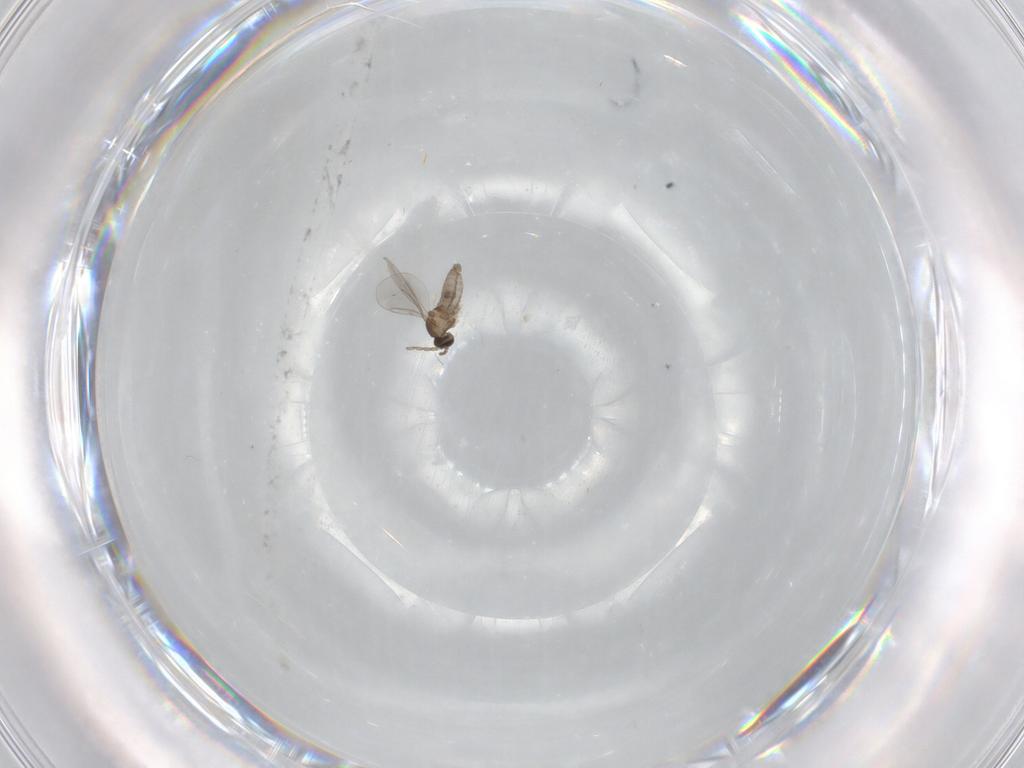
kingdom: Animalia
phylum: Arthropoda
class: Insecta
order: Diptera
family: Cecidomyiidae
